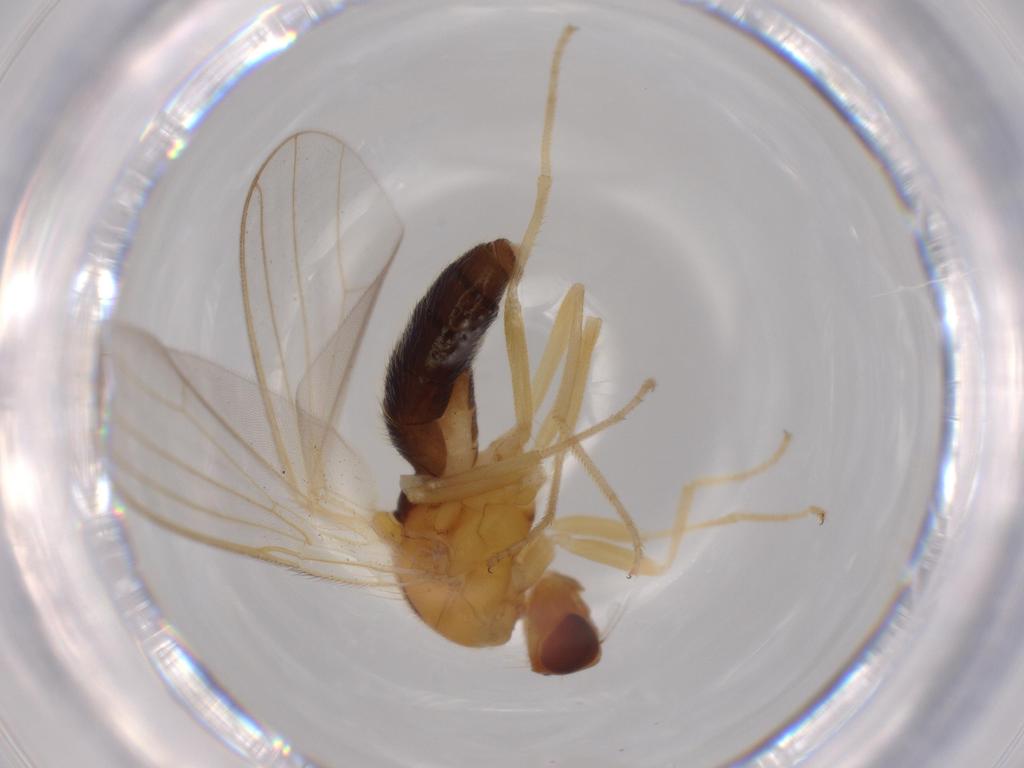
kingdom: Animalia
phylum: Arthropoda
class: Insecta
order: Diptera
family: Psilidae
